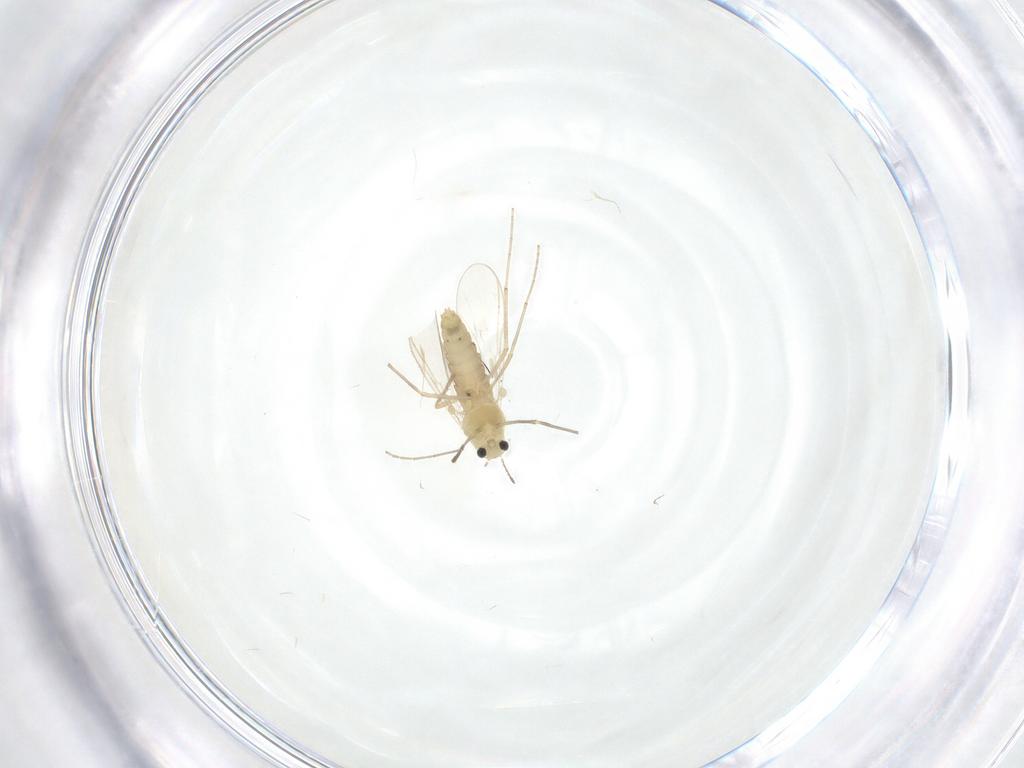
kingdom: Animalia
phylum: Arthropoda
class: Insecta
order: Diptera
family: Chironomidae
